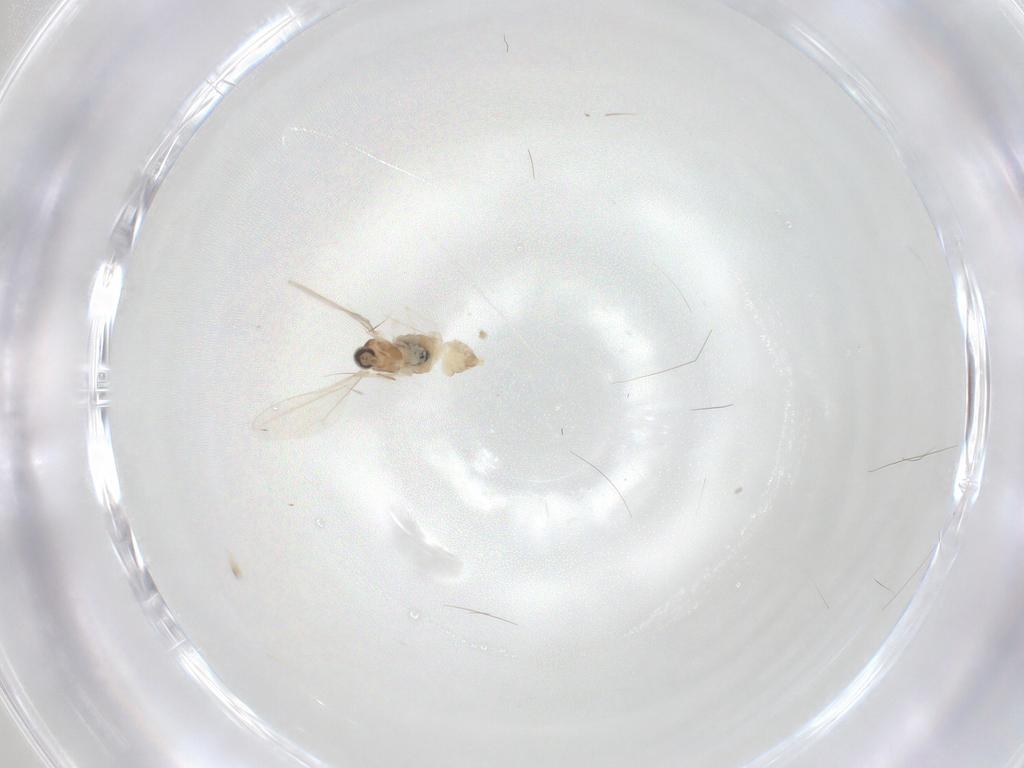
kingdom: Animalia
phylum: Arthropoda
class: Insecta
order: Diptera
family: Cecidomyiidae
